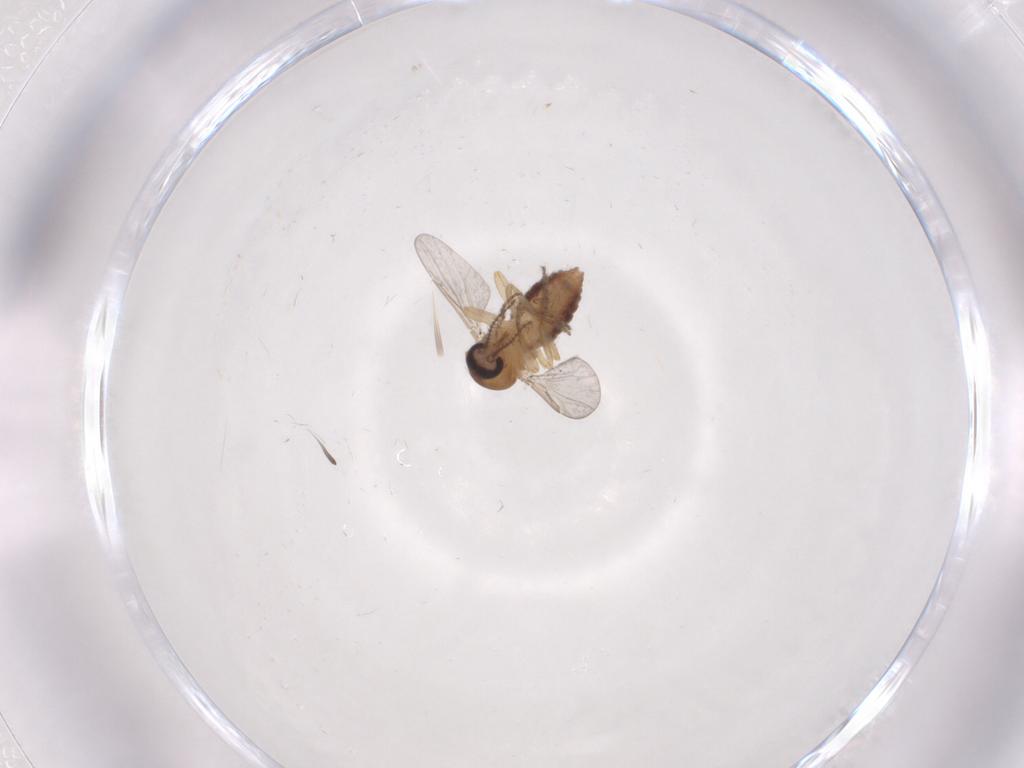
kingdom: Animalia
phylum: Arthropoda
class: Insecta
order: Diptera
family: Ceratopogonidae
